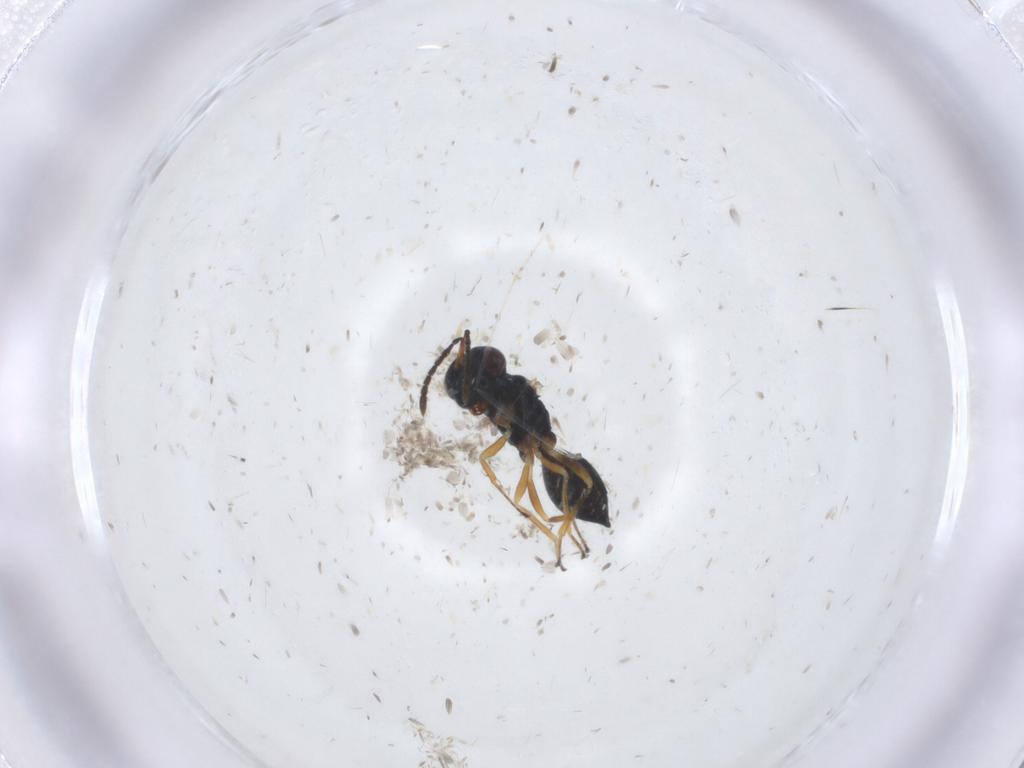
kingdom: Animalia
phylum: Arthropoda
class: Insecta
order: Hymenoptera
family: Pteromalidae
